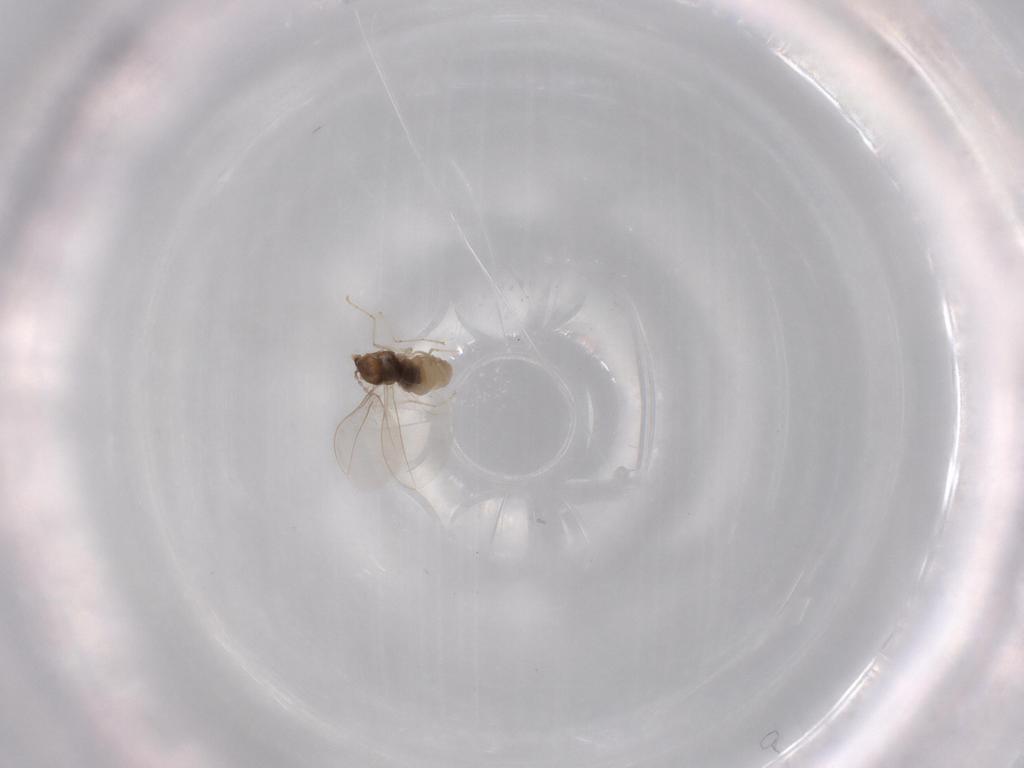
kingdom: Animalia
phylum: Arthropoda
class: Insecta
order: Diptera
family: Cecidomyiidae
